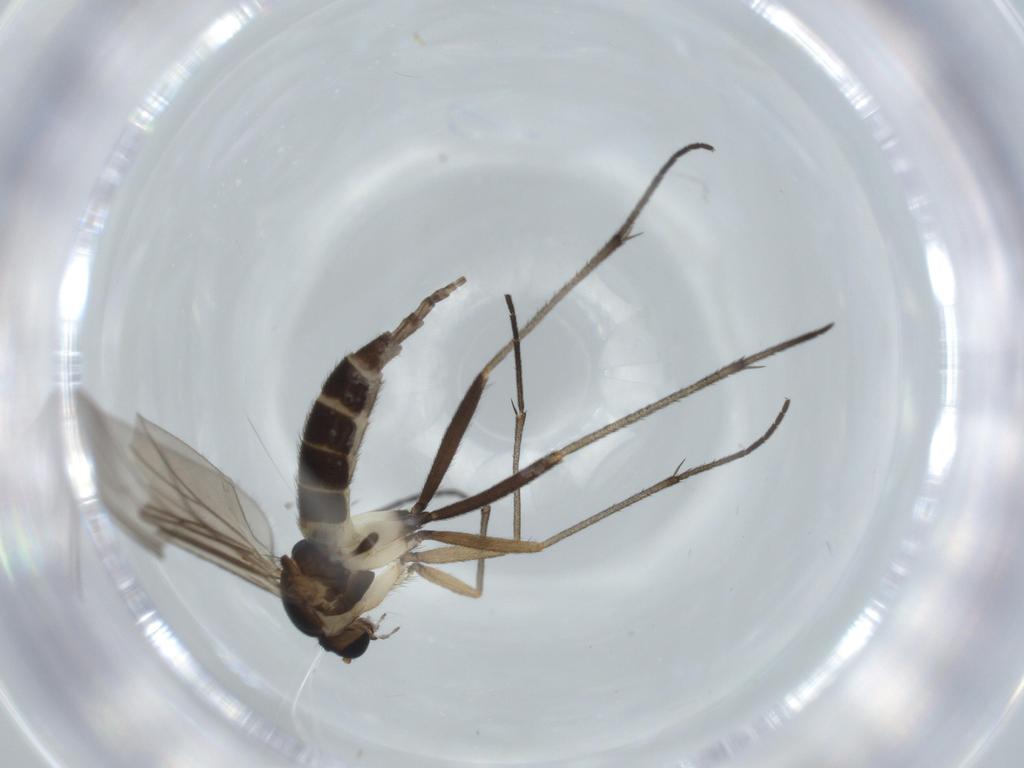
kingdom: Animalia
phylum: Arthropoda
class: Insecta
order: Diptera
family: Sciaridae
